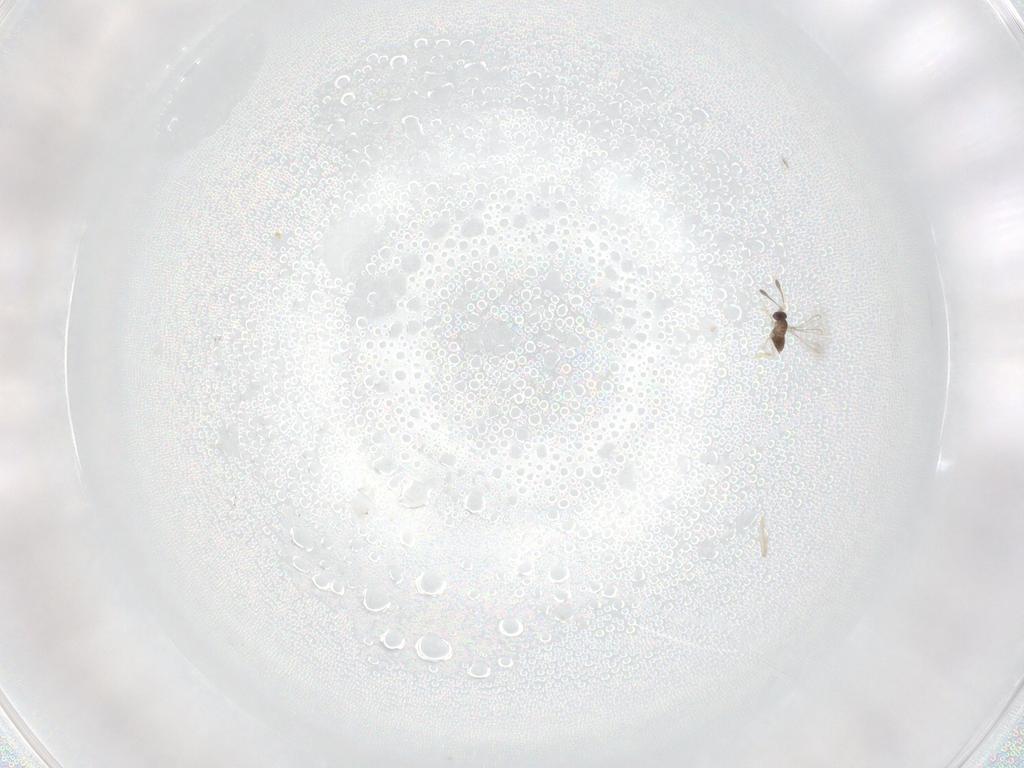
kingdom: Animalia
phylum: Arthropoda
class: Insecta
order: Hymenoptera
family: Mymaridae
